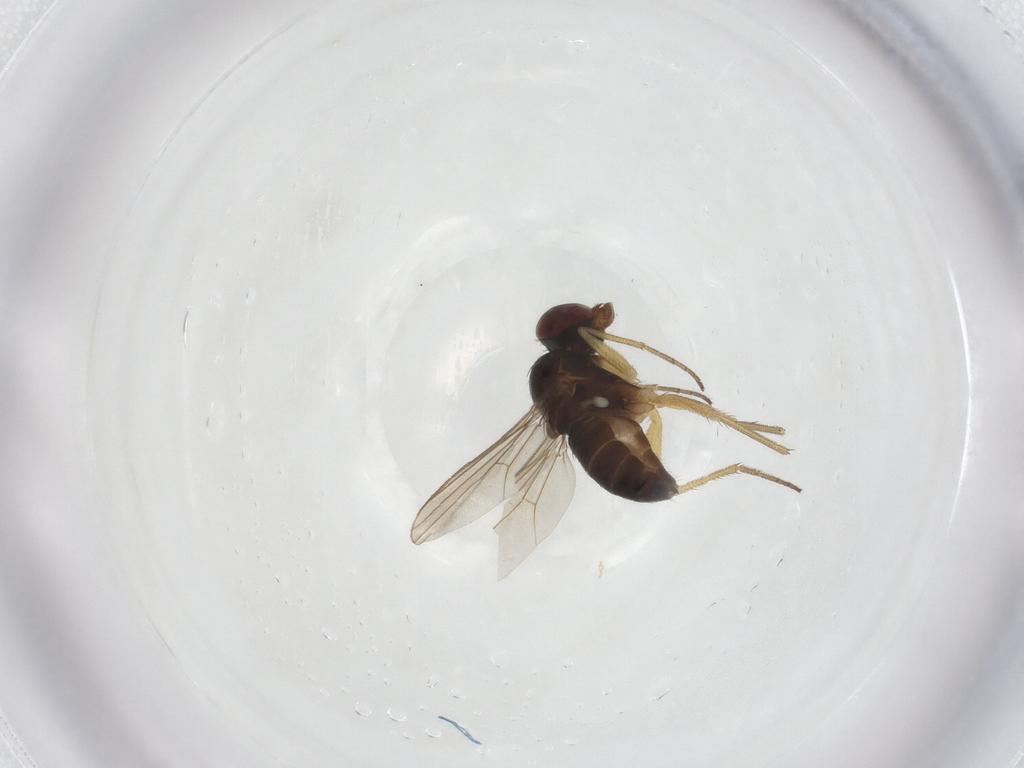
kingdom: Animalia
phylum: Arthropoda
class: Insecta
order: Diptera
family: Dolichopodidae
